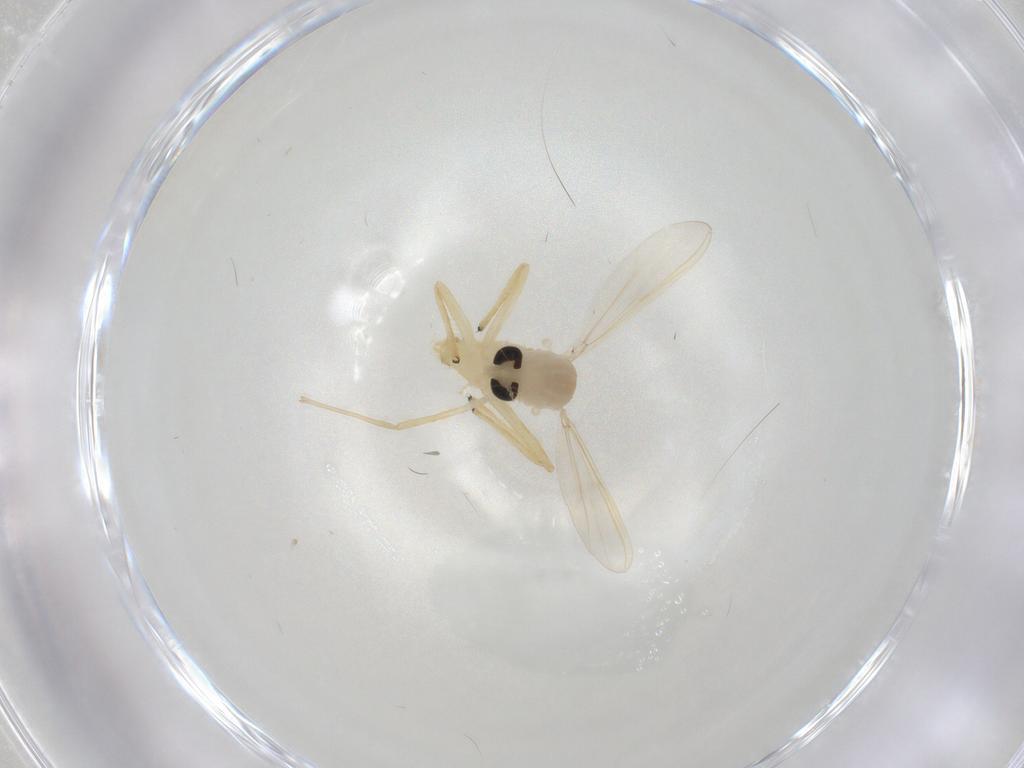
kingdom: Animalia
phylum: Arthropoda
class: Insecta
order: Diptera
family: Chironomidae
